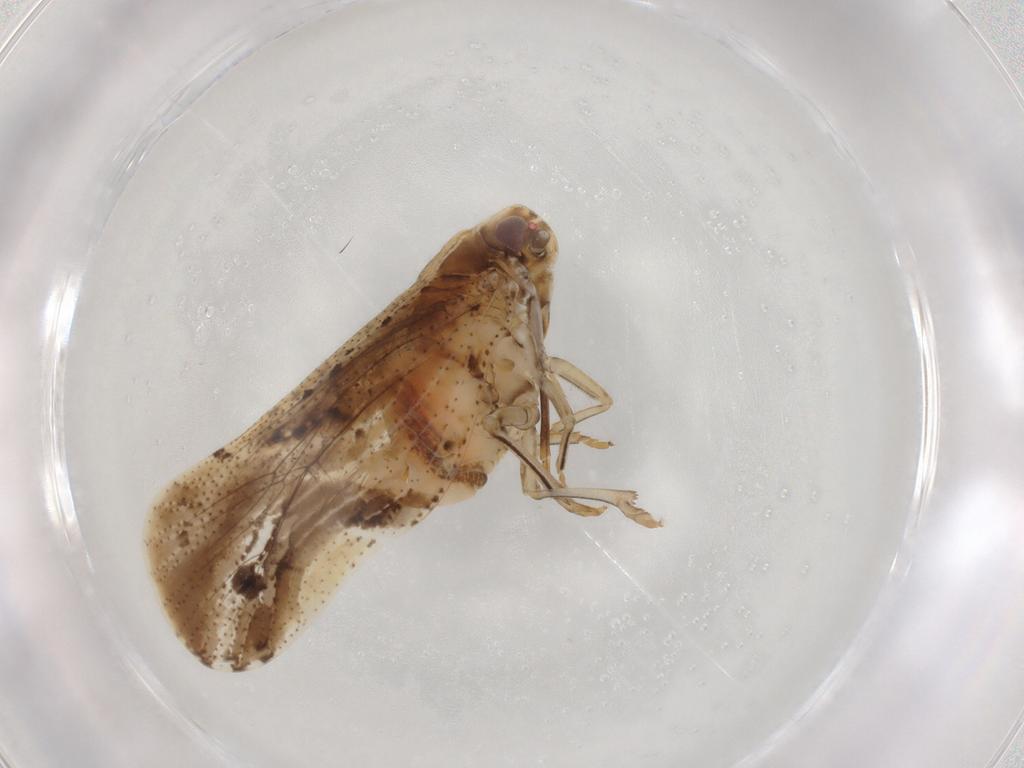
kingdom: Animalia
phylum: Arthropoda
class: Insecta
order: Hemiptera
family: Cixiidae
